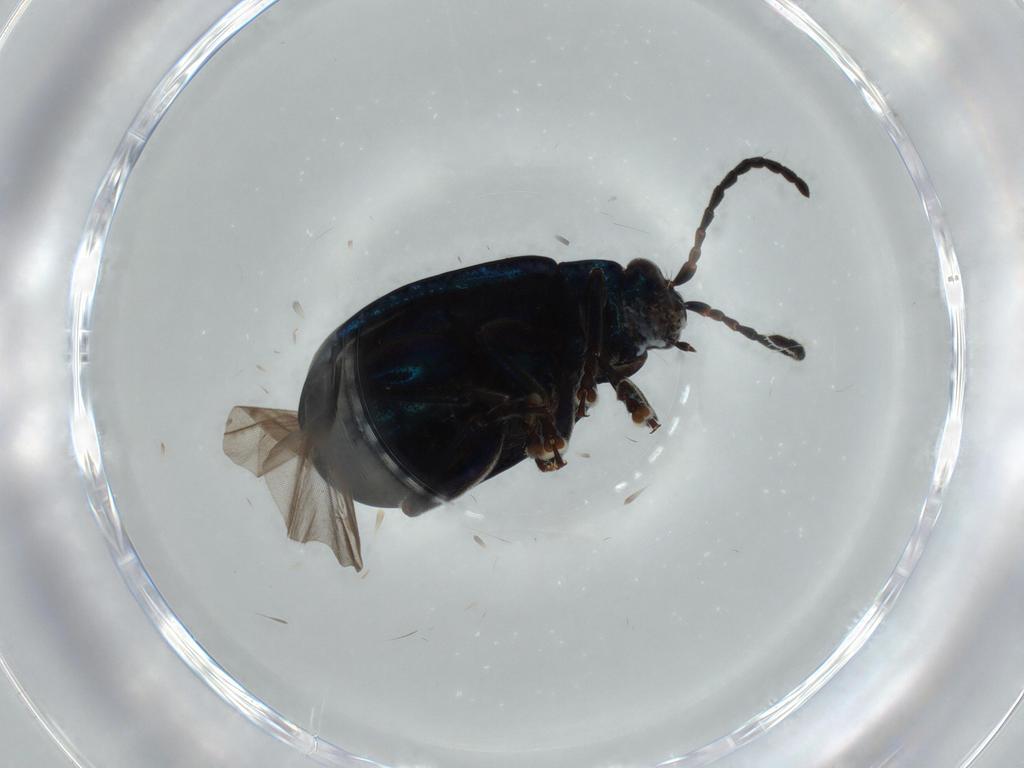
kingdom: Animalia
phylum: Arthropoda
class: Insecta
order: Coleoptera
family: Chrysomelidae
